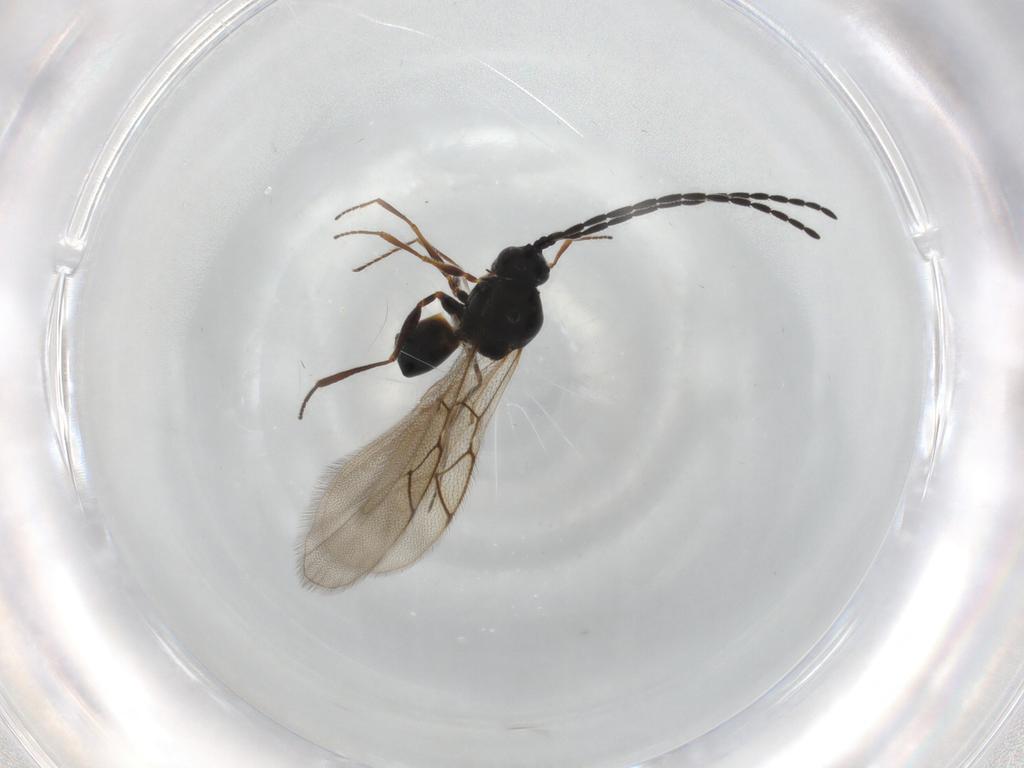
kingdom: Animalia
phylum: Arthropoda
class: Insecta
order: Hymenoptera
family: Figitidae
